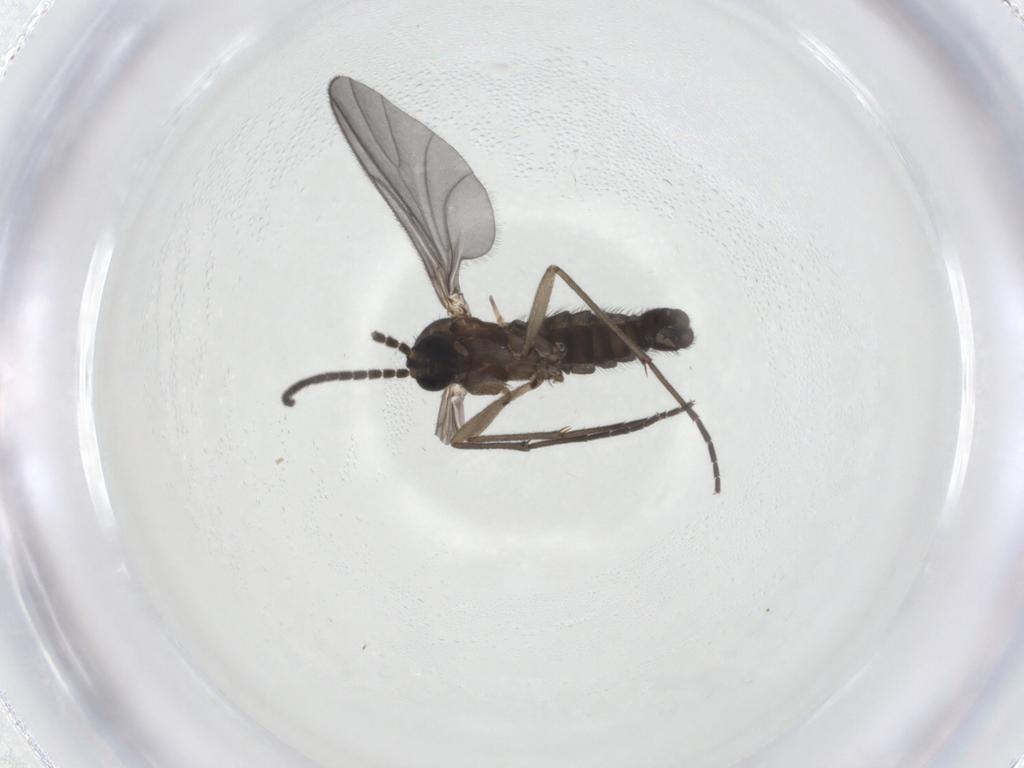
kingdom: Animalia
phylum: Arthropoda
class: Insecta
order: Diptera
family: Sciaridae
